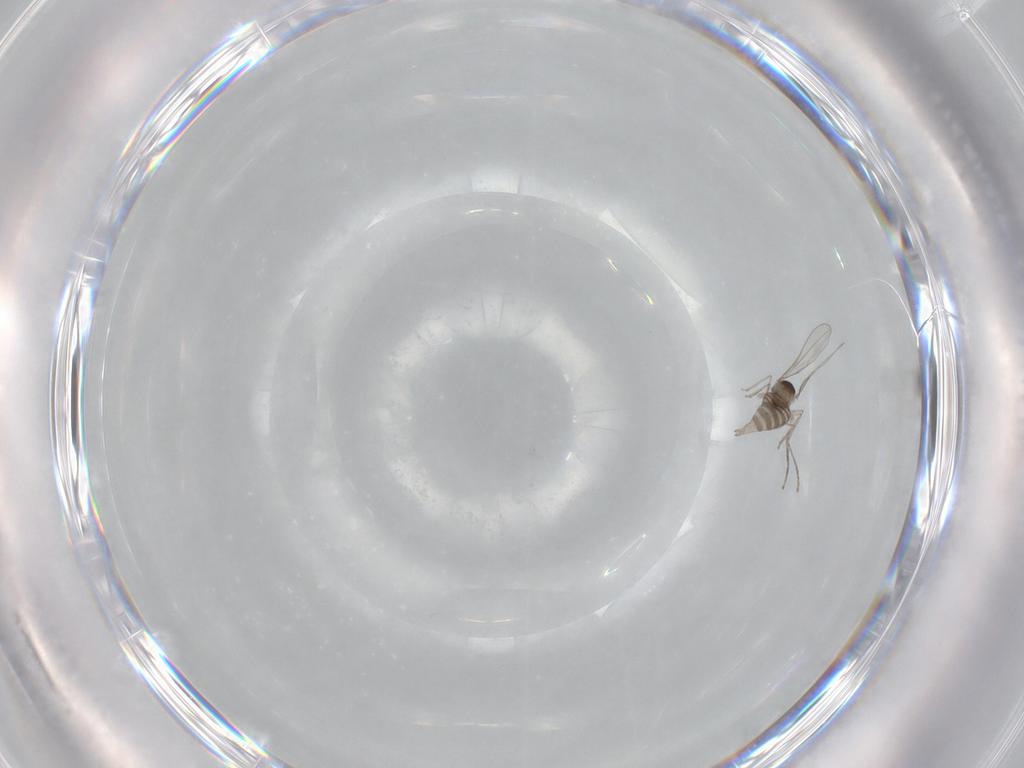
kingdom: Animalia
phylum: Arthropoda
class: Insecta
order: Diptera
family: Cecidomyiidae
